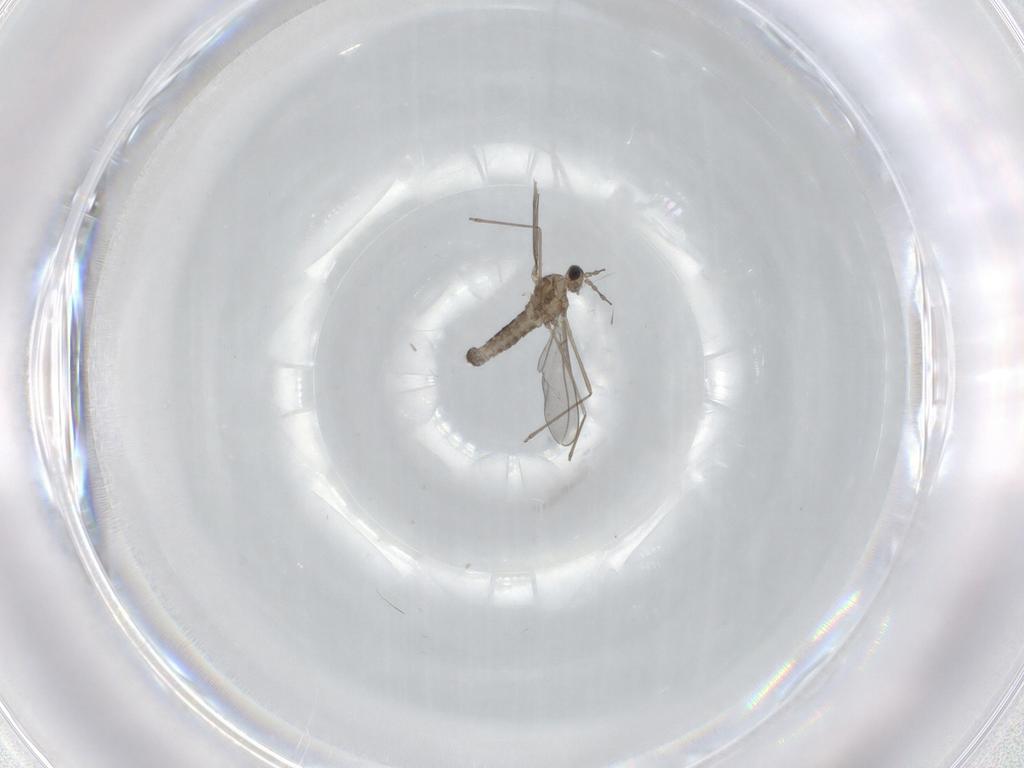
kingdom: Animalia
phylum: Arthropoda
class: Insecta
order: Diptera
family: Cecidomyiidae
